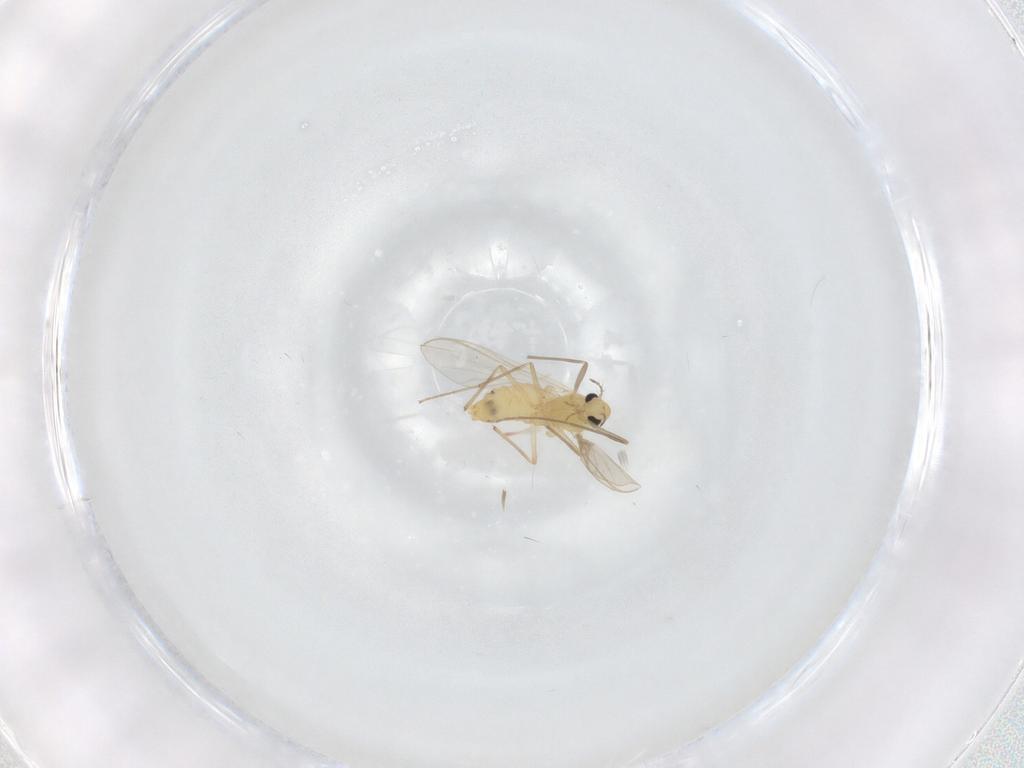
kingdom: Animalia
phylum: Arthropoda
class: Insecta
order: Diptera
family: Chironomidae
